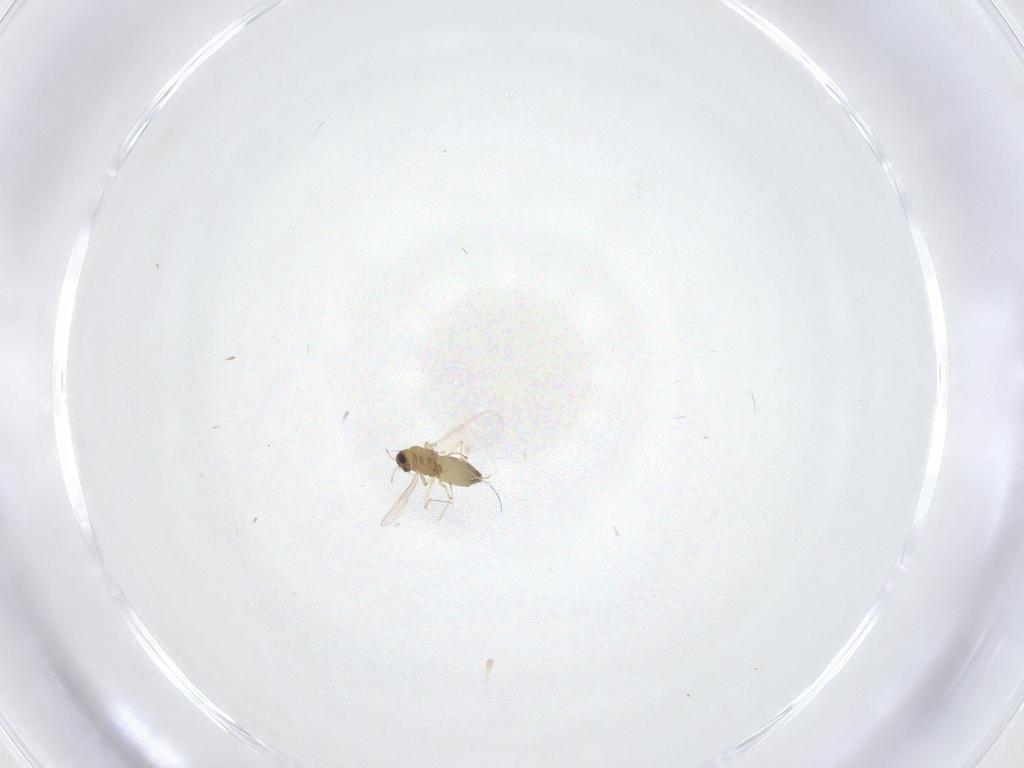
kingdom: Animalia
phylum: Arthropoda
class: Insecta
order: Diptera
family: Chironomidae
